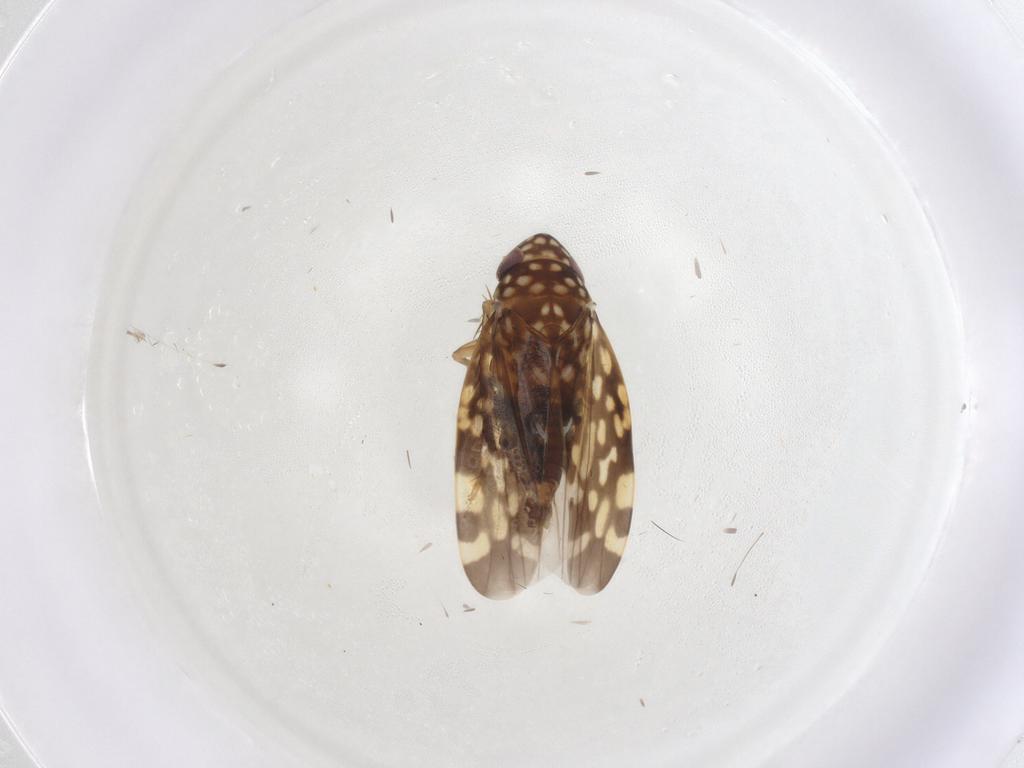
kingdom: Animalia
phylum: Arthropoda
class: Insecta
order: Hemiptera
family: Cicadellidae
